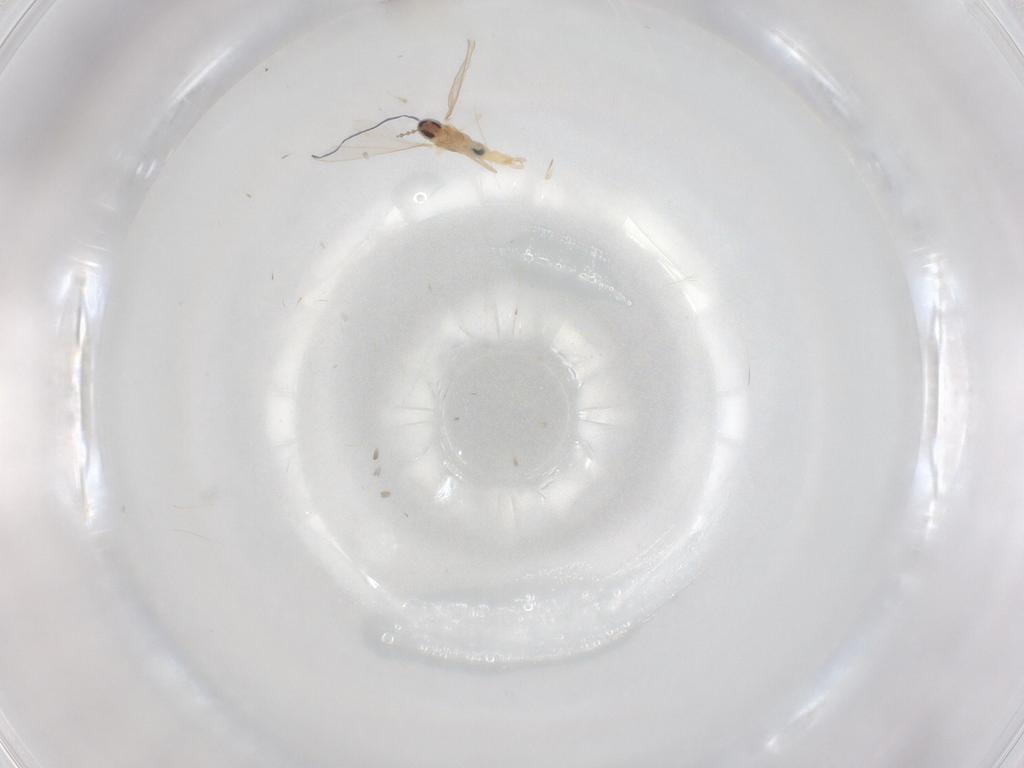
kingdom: Animalia
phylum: Arthropoda
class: Insecta
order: Diptera
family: Cecidomyiidae
